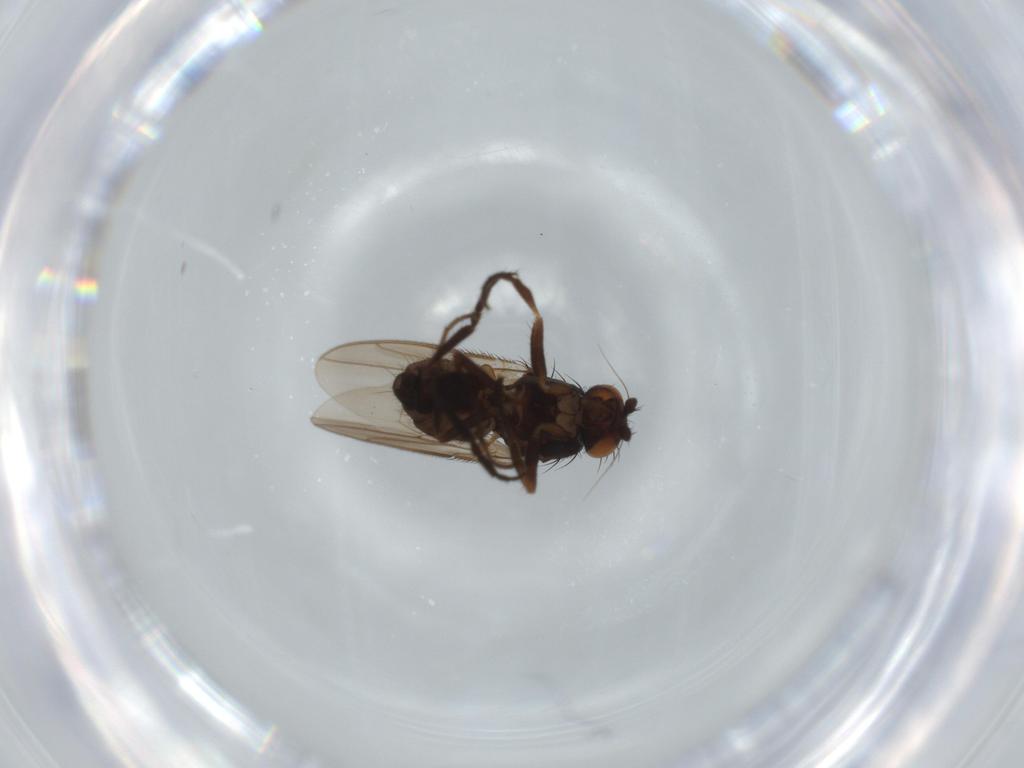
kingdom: Animalia
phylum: Arthropoda
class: Insecta
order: Diptera
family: Sphaeroceridae
